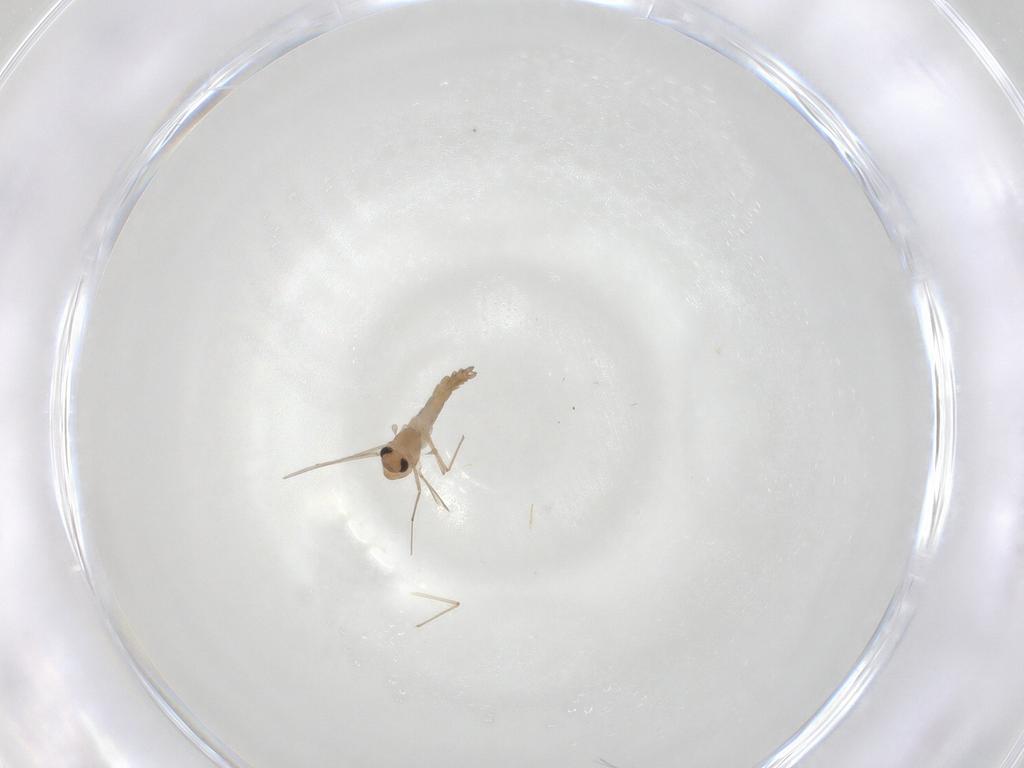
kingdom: Animalia
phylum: Arthropoda
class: Insecta
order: Diptera
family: Chironomidae
